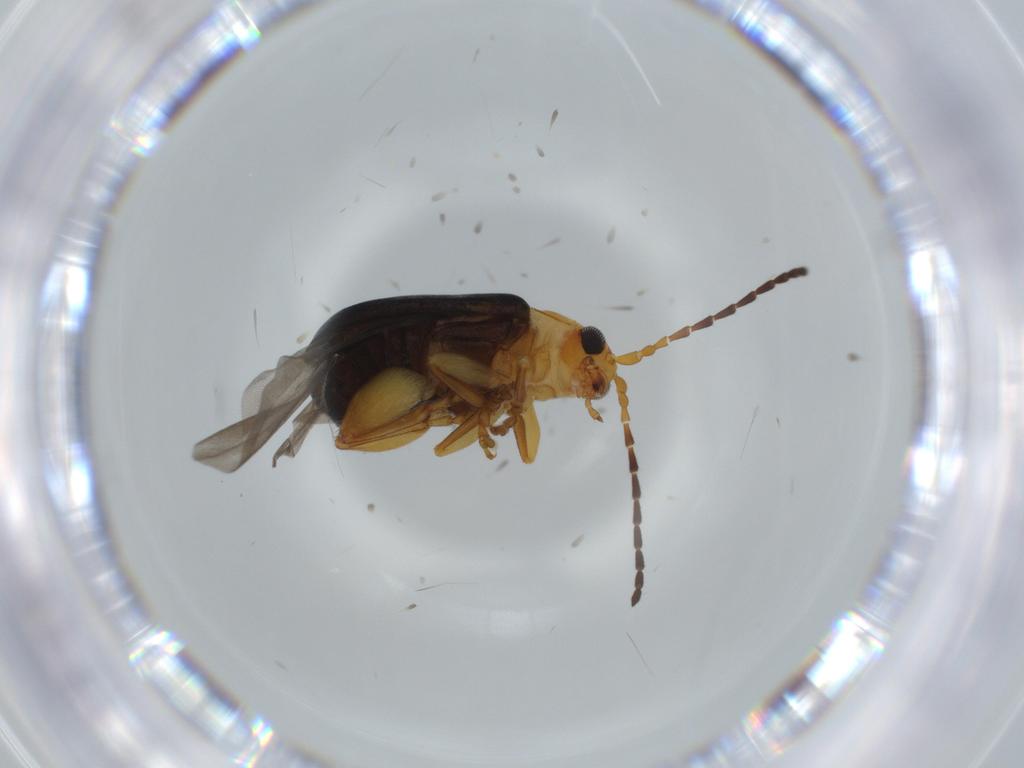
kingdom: Animalia
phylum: Arthropoda
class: Insecta
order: Coleoptera
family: Chrysomelidae
